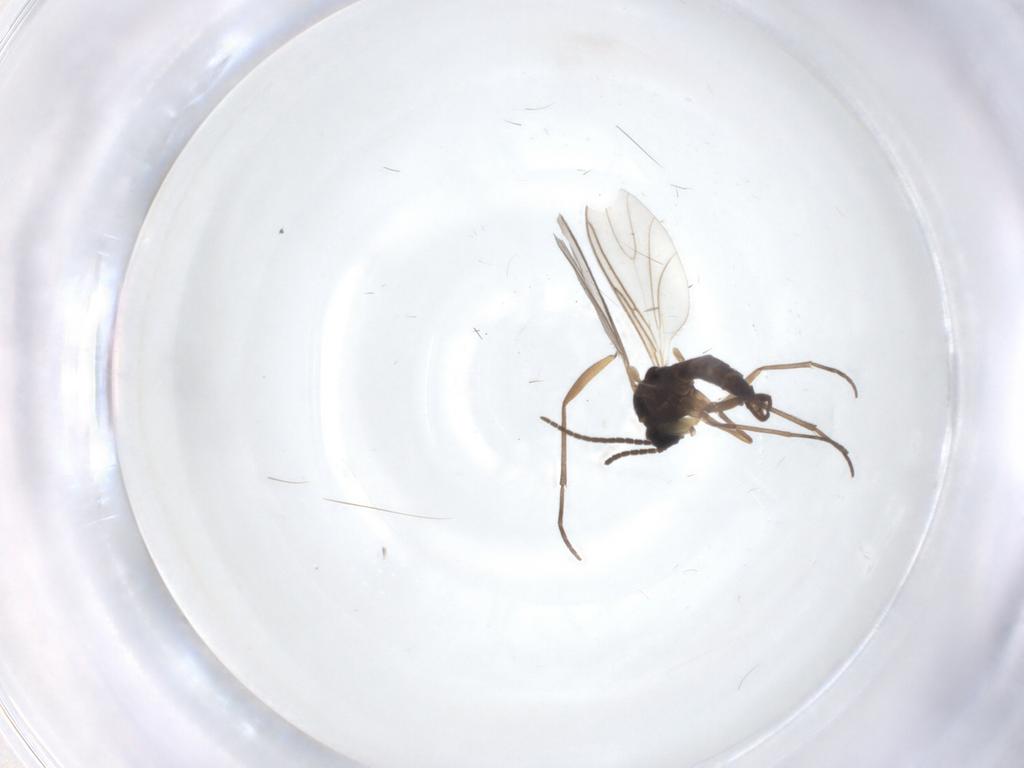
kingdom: Animalia
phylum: Arthropoda
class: Insecta
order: Diptera
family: Sciaridae
